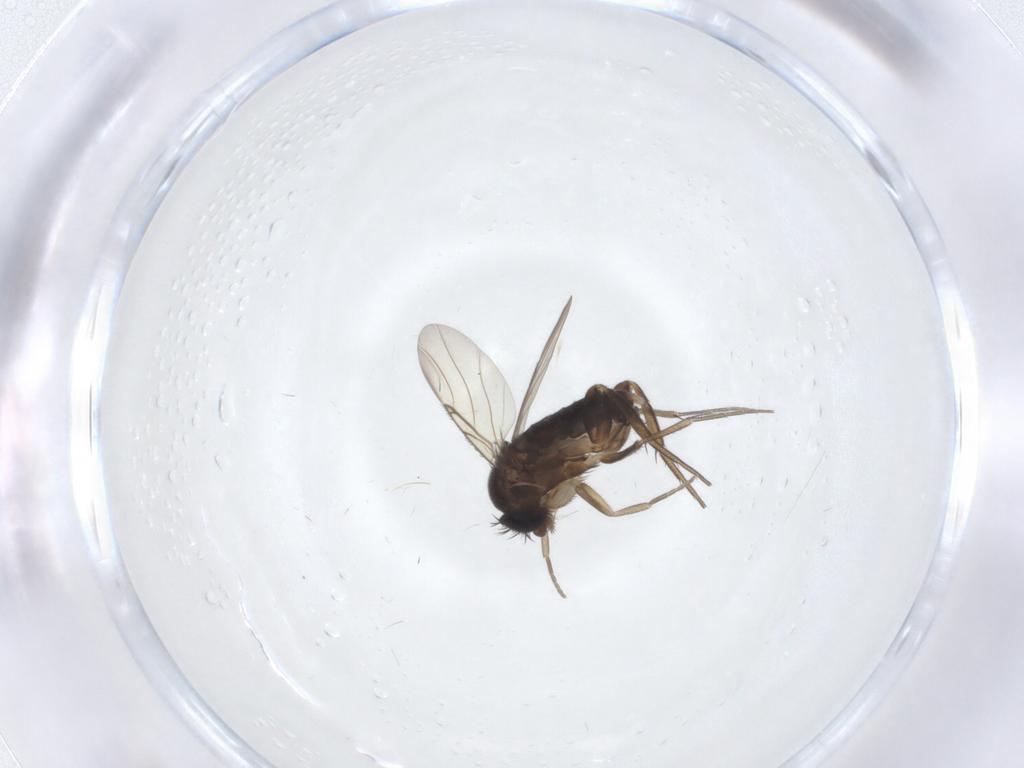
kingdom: Animalia
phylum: Arthropoda
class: Insecta
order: Diptera
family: Phoridae
